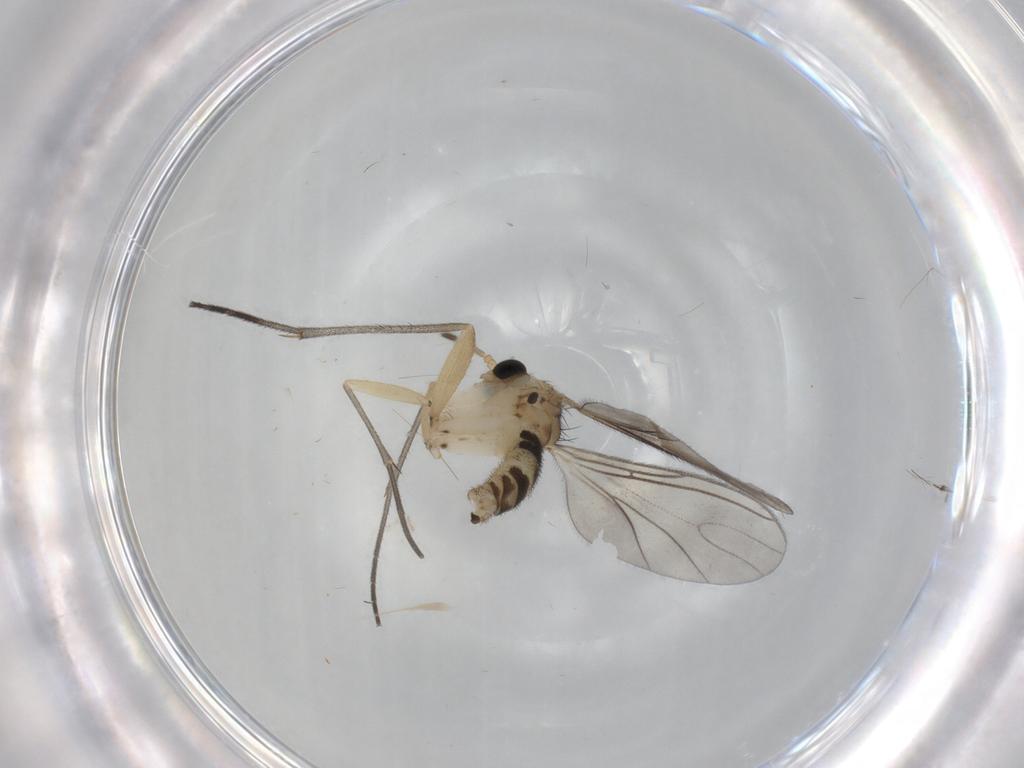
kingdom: Animalia
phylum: Arthropoda
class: Insecta
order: Diptera
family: Sciaridae
